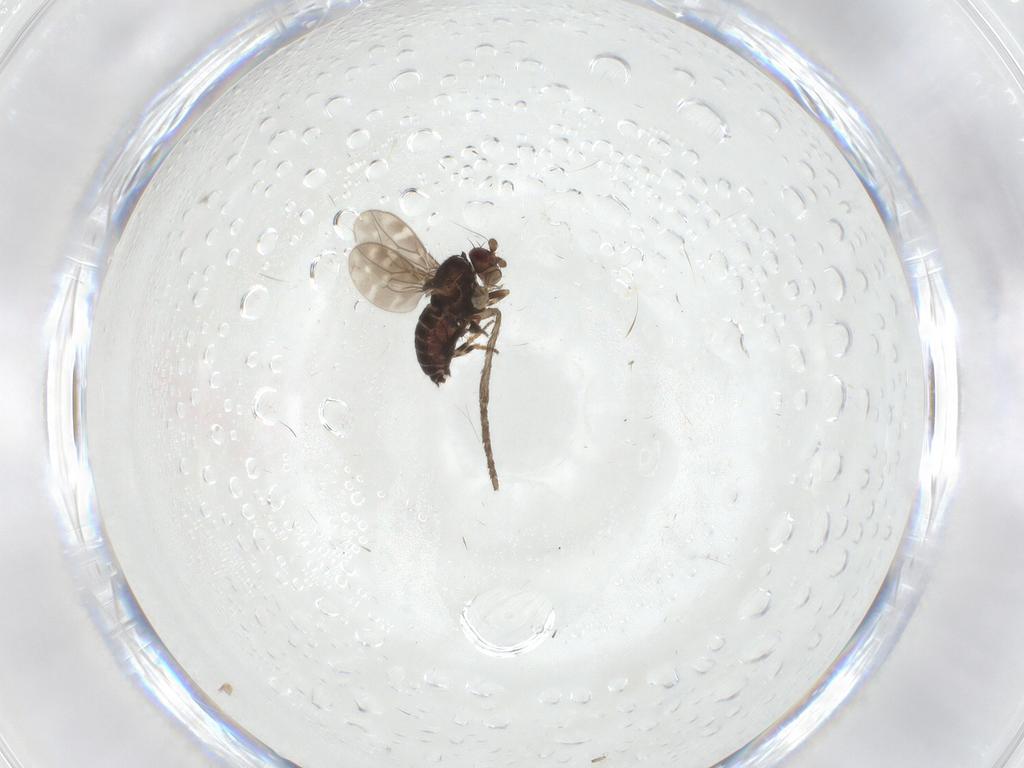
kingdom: Animalia
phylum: Arthropoda
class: Insecta
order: Diptera
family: Sphaeroceridae
